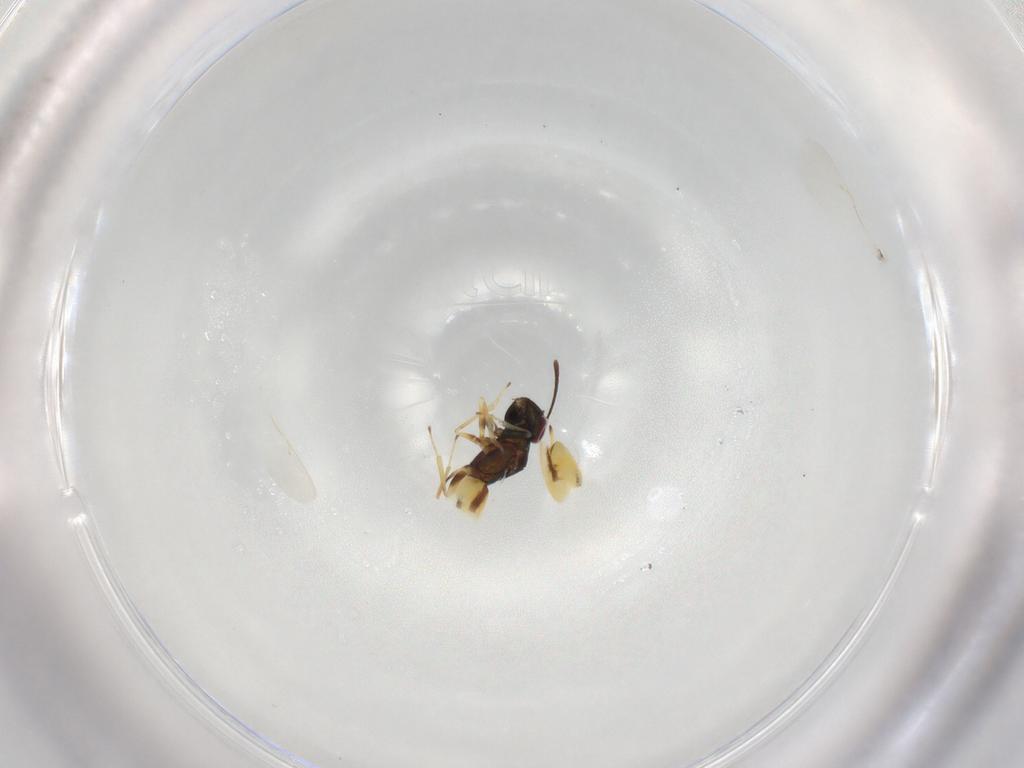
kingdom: Animalia
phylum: Arthropoda
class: Insecta
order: Hymenoptera
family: Encyrtidae
